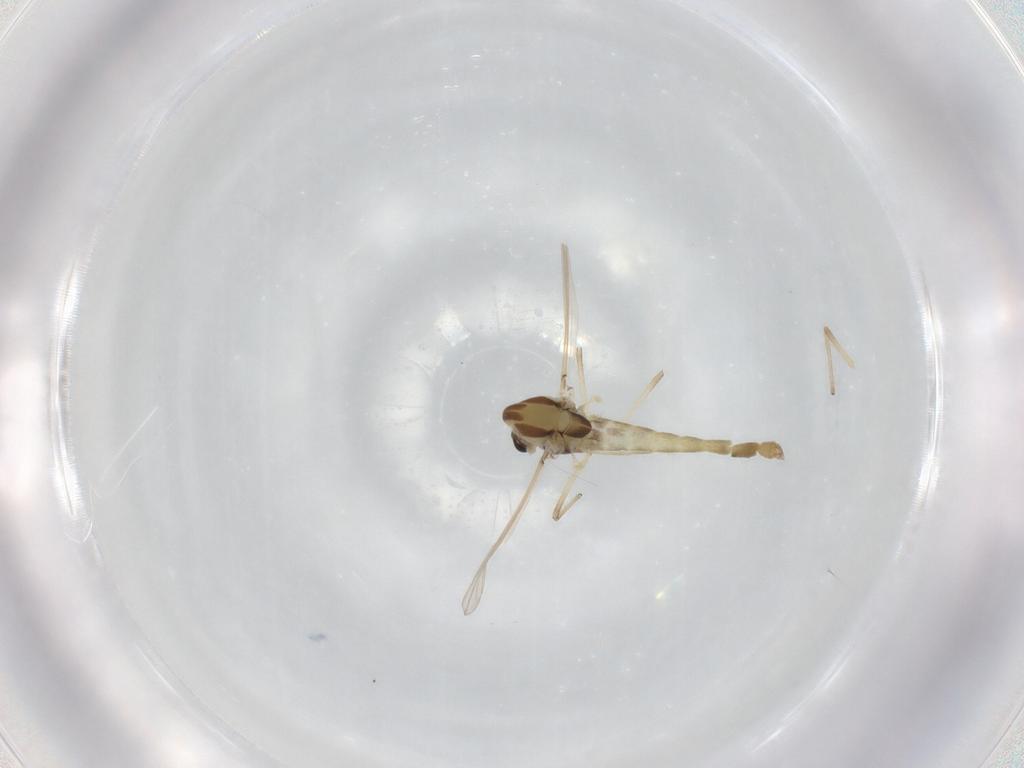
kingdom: Animalia
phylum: Arthropoda
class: Insecta
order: Diptera
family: Chironomidae
